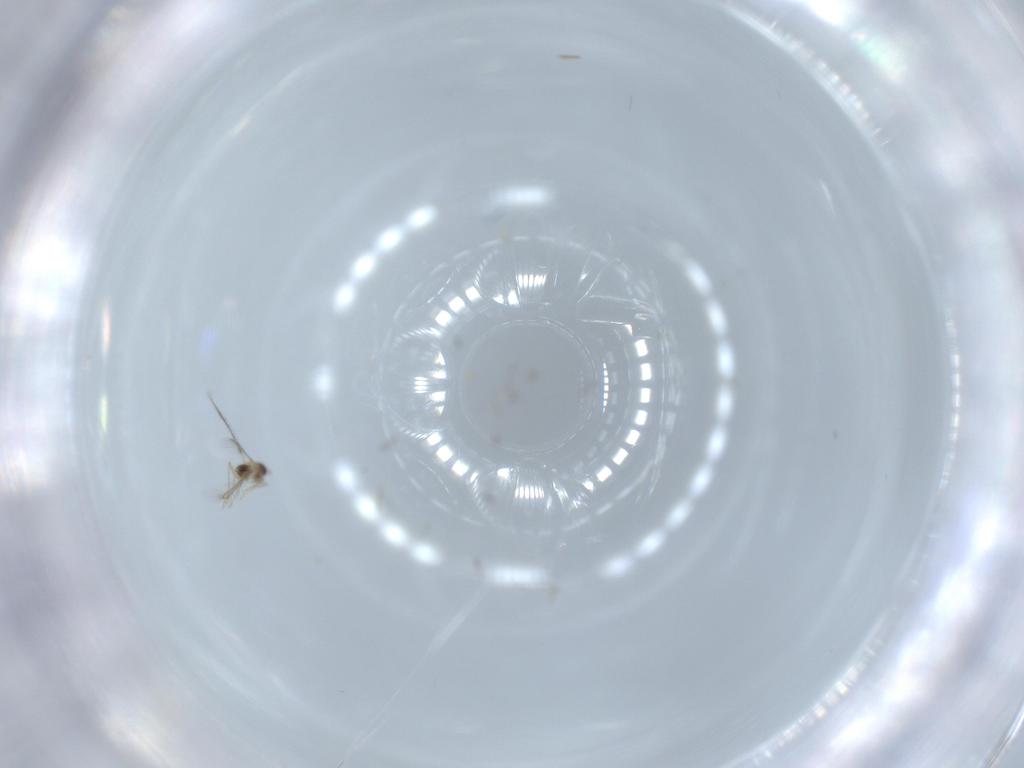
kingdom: Animalia
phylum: Arthropoda
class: Insecta
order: Hymenoptera
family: Mymaridae
